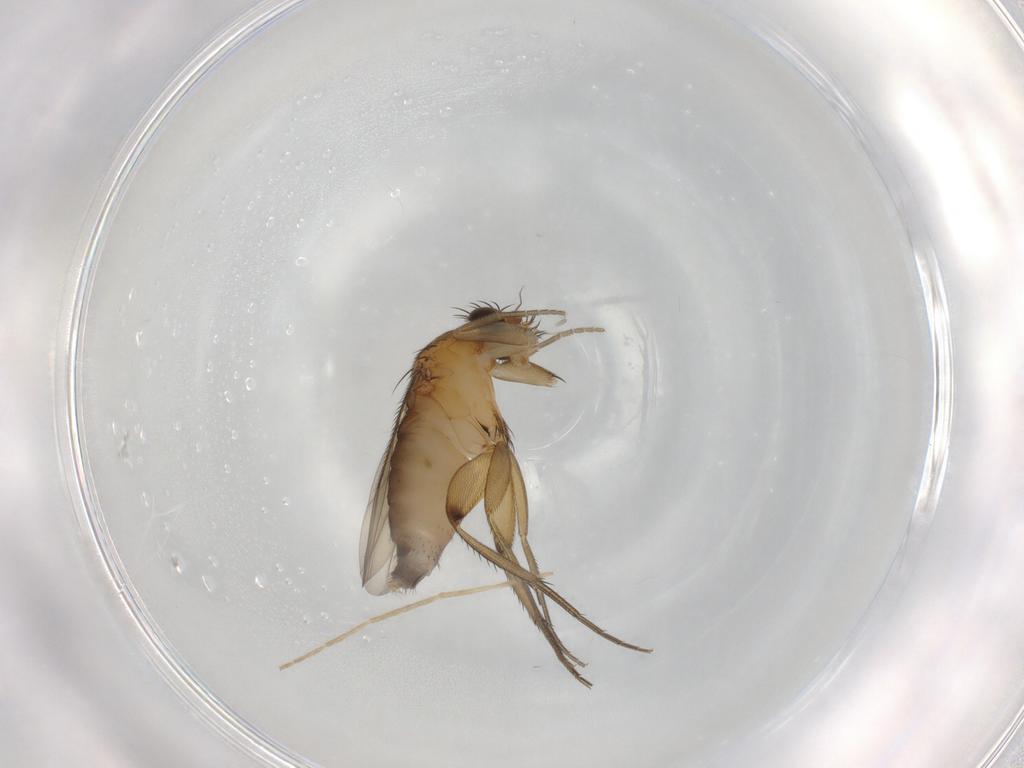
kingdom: Animalia
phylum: Arthropoda
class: Insecta
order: Diptera
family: Phoridae
